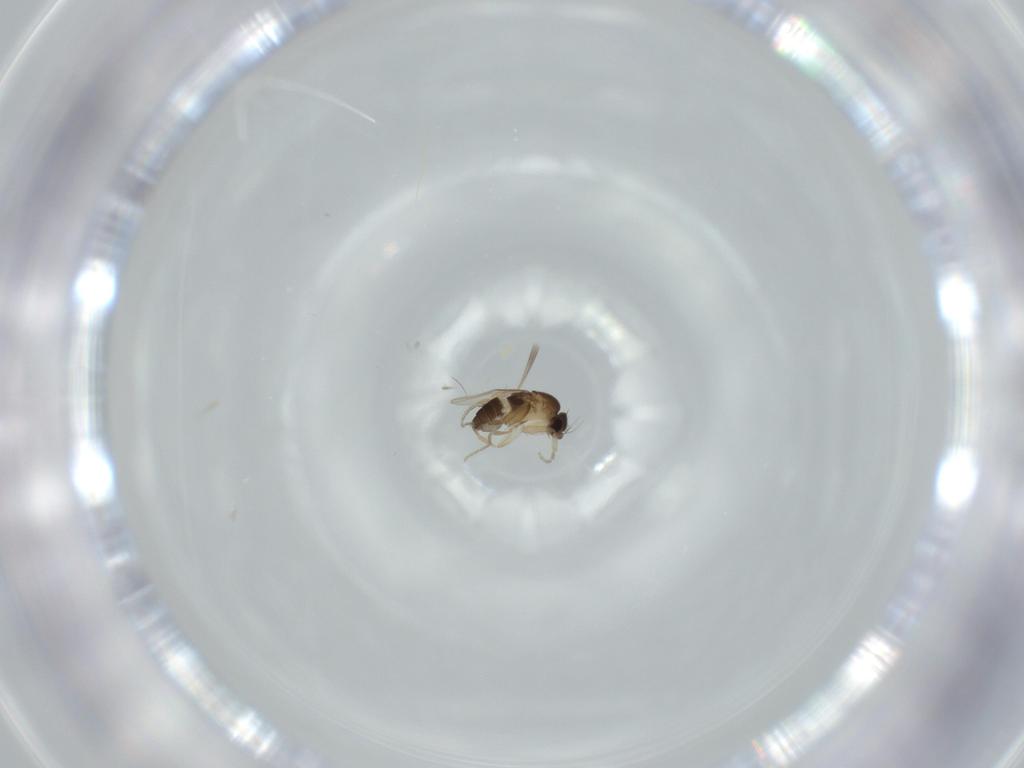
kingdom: Animalia
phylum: Arthropoda
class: Insecta
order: Diptera
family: Phoridae
